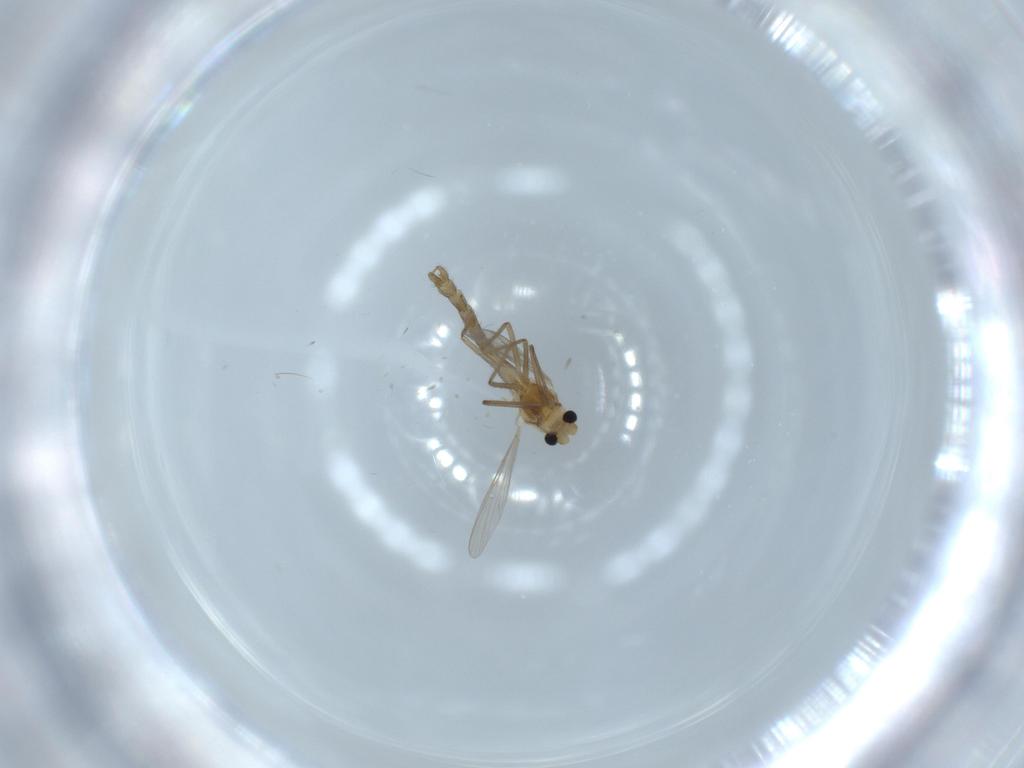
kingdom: Animalia
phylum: Arthropoda
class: Insecta
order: Diptera
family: Chironomidae
